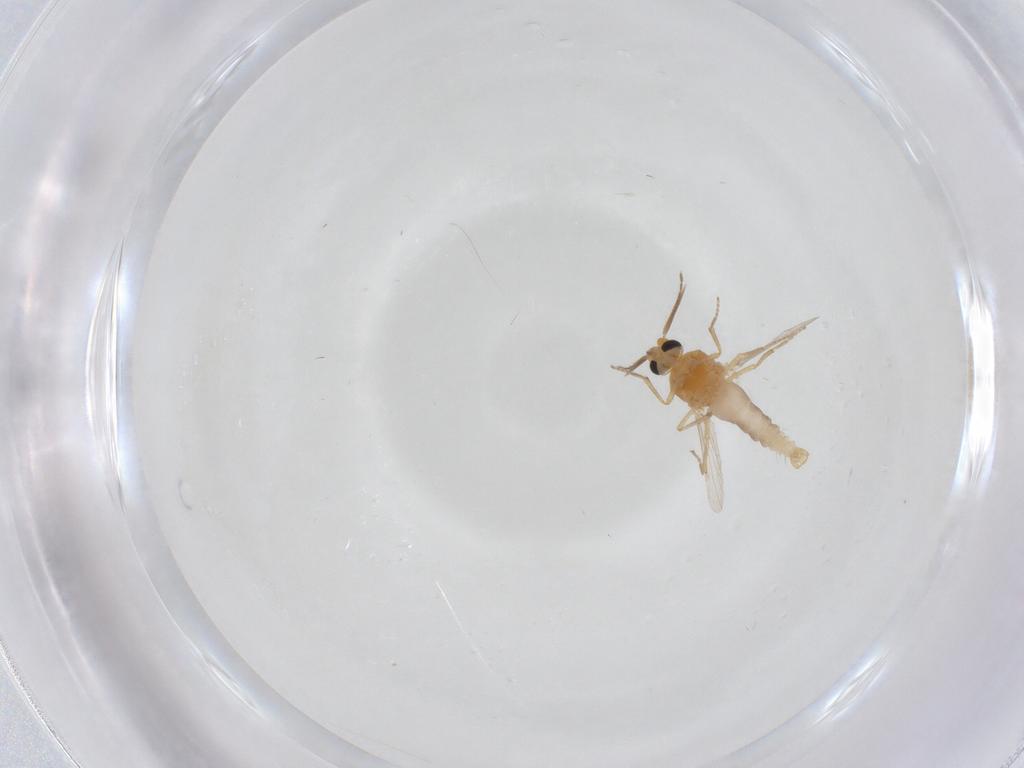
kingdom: Animalia
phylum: Arthropoda
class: Insecta
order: Diptera
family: Ceratopogonidae
